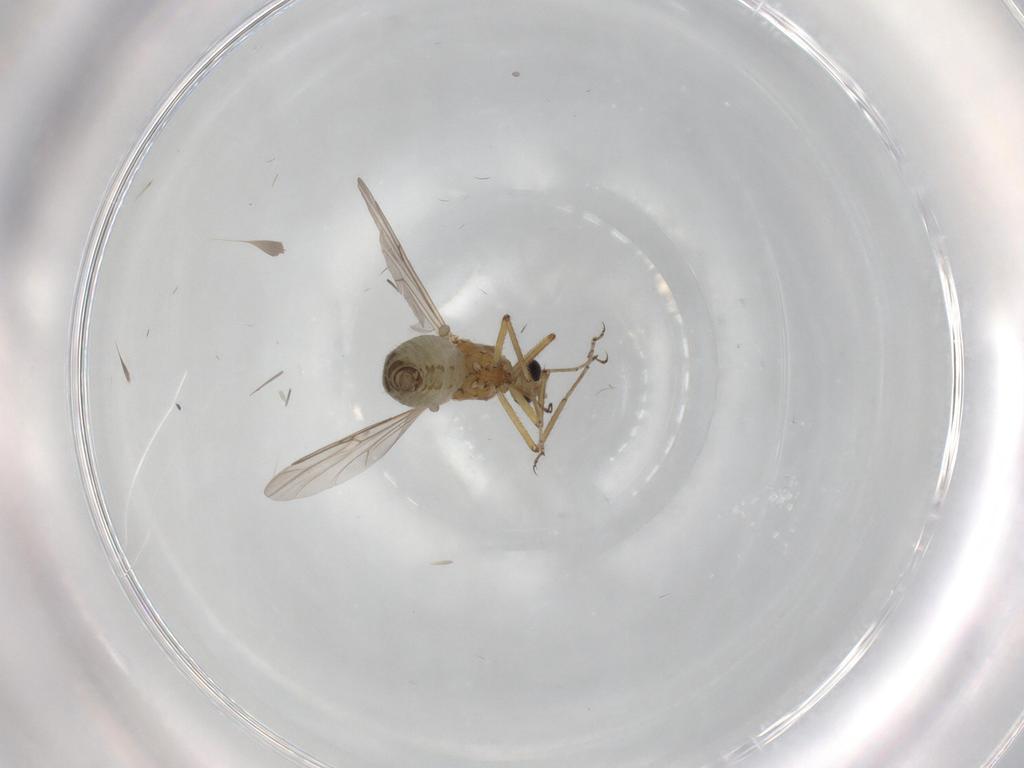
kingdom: Animalia
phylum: Arthropoda
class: Insecta
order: Diptera
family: Ceratopogonidae
